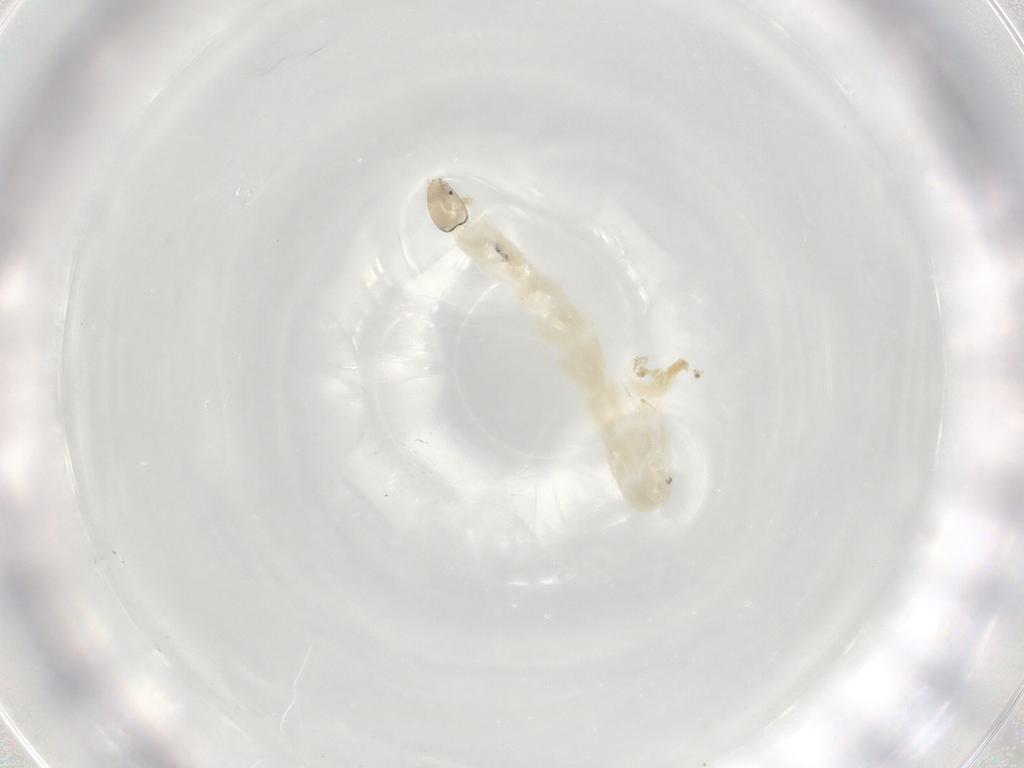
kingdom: Animalia
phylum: Arthropoda
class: Insecta
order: Diptera
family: Chironomidae
